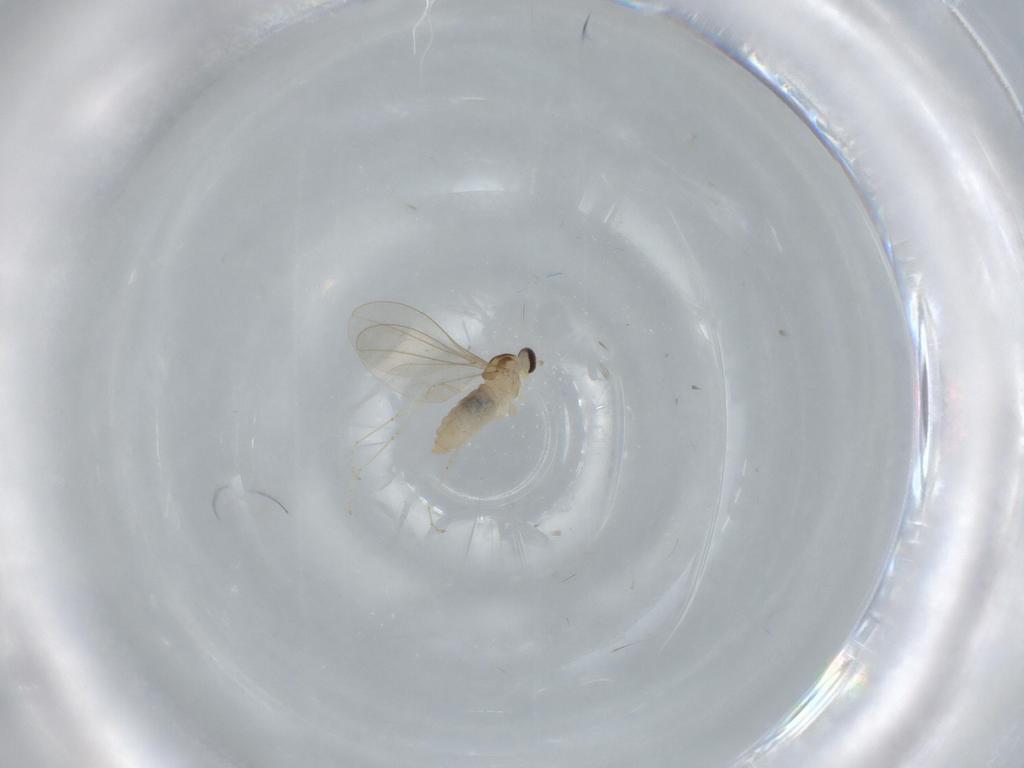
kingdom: Animalia
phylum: Arthropoda
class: Insecta
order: Diptera
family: Cecidomyiidae
